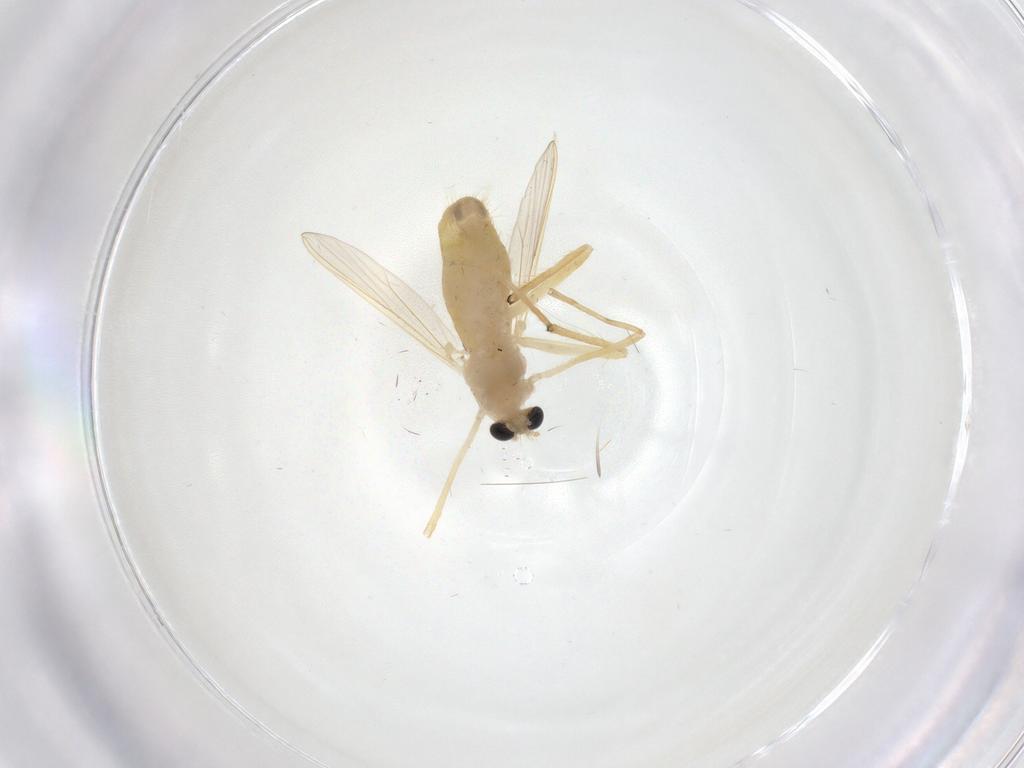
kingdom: Animalia
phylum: Arthropoda
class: Insecta
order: Diptera
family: Chironomidae
